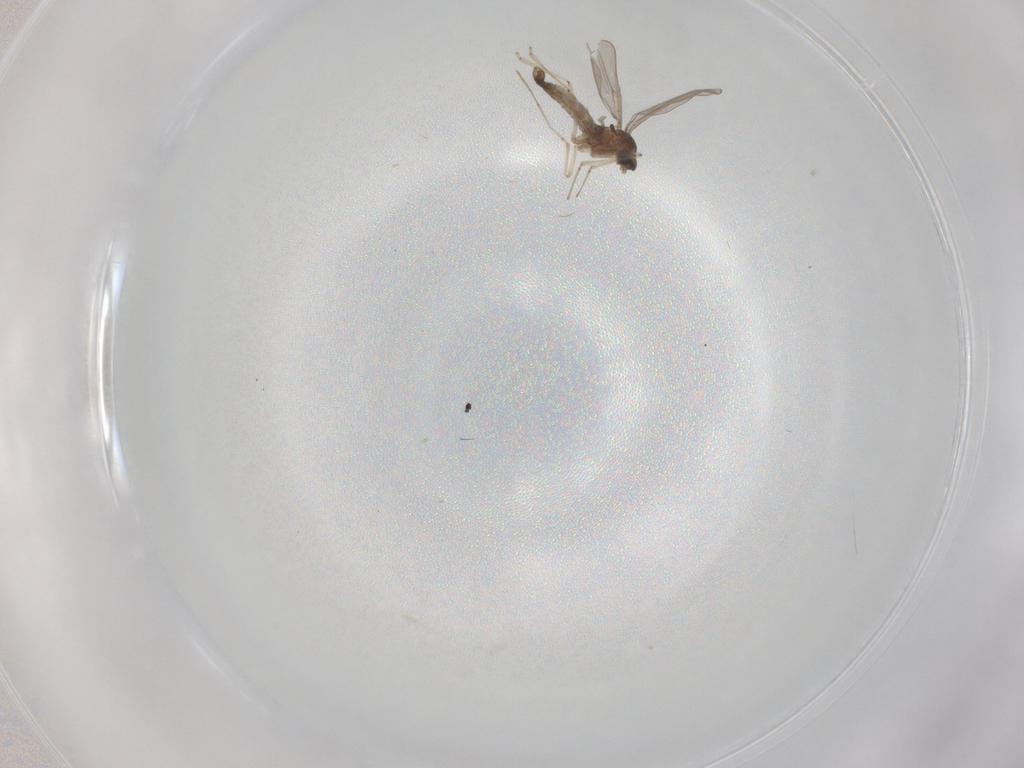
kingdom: Animalia
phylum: Arthropoda
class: Insecta
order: Diptera
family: Cecidomyiidae
